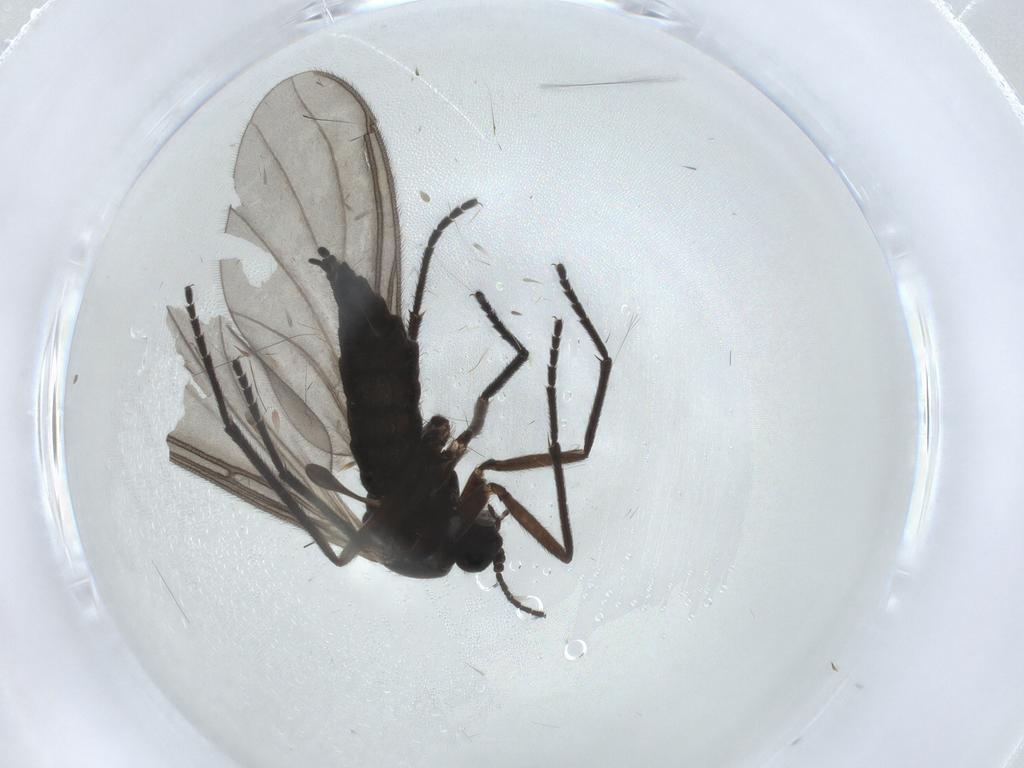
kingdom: Animalia
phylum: Arthropoda
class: Insecta
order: Diptera
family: Sciaridae
